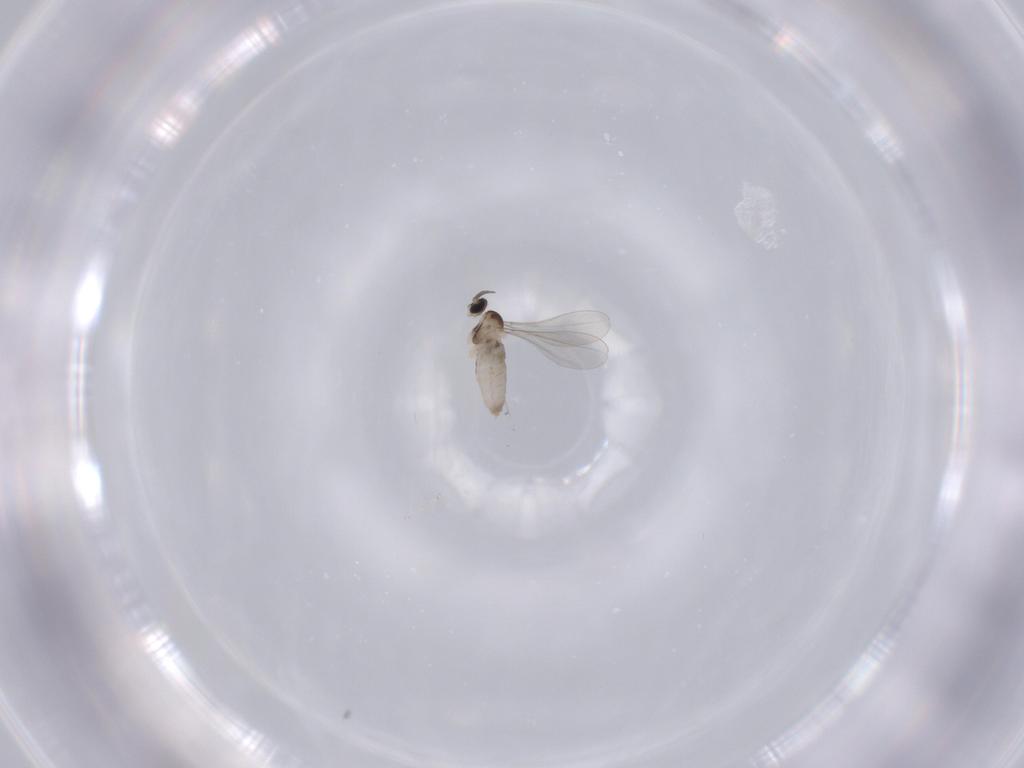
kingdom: Animalia
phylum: Arthropoda
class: Insecta
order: Diptera
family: Sciaridae
